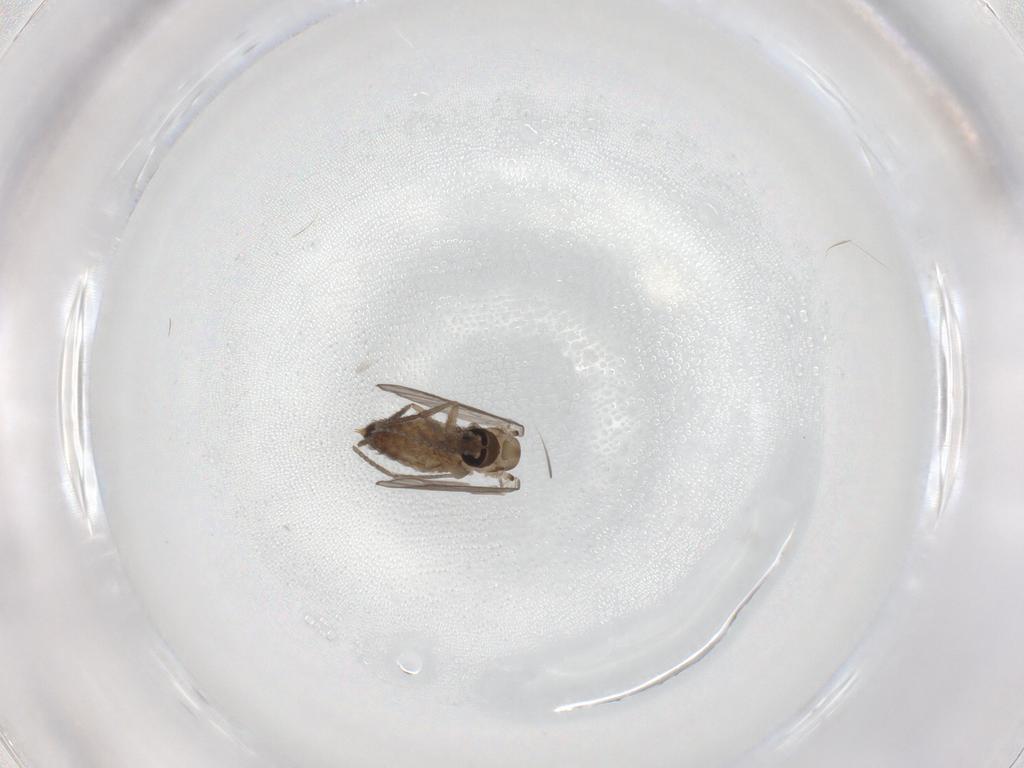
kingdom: Animalia
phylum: Arthropoda
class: Insecta
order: Diptera
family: Psychodidae
